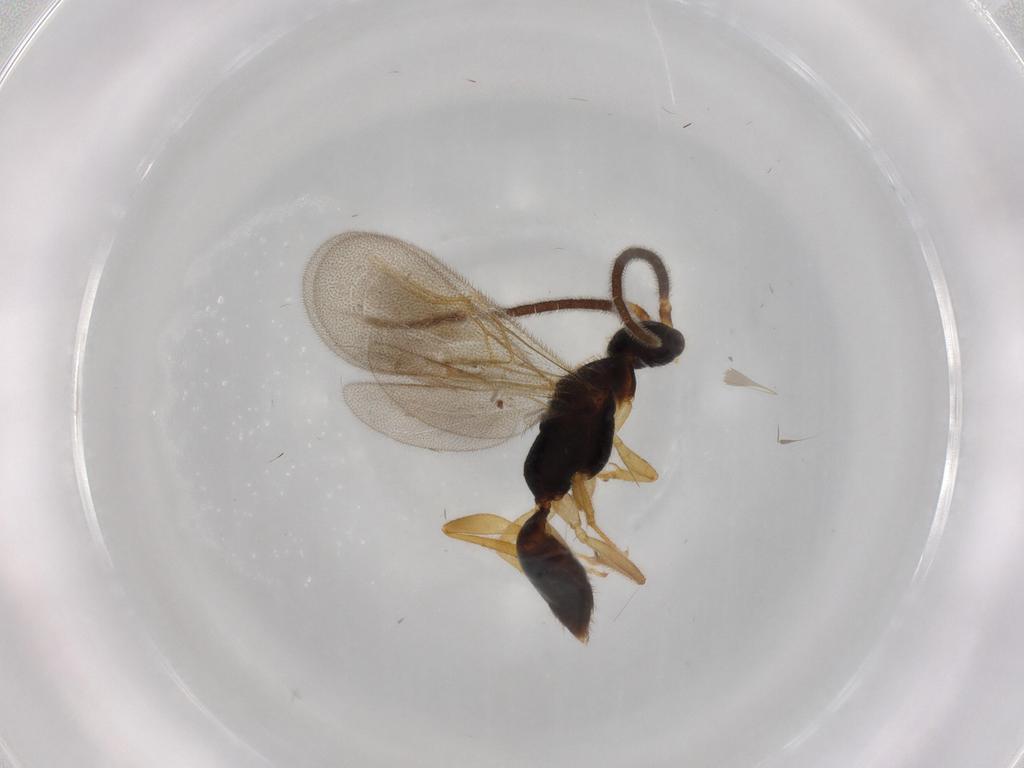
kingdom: Animalia
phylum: Arthropoda
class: Insecta
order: Hymenoptera
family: Bethylidae
